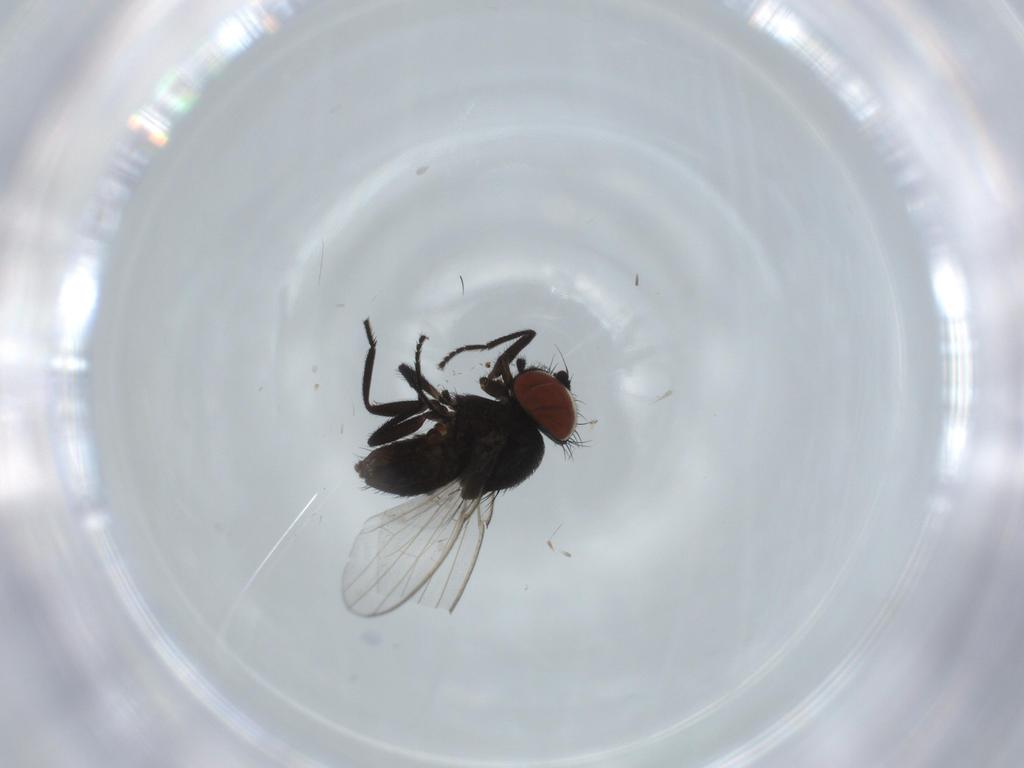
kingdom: Animalia
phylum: Arthropoda
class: Insecta
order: Diptera
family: Milichiidae
